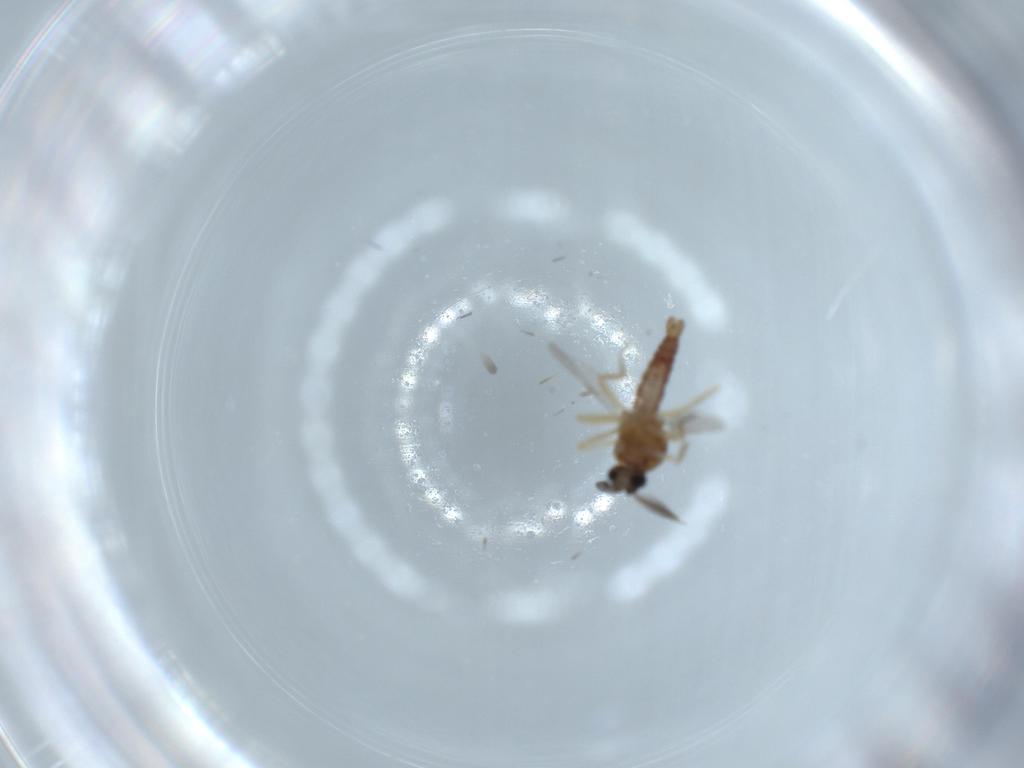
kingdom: Animalia
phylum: Arthropoda
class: Insecta
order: Diptera
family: Ceratopogonidae
